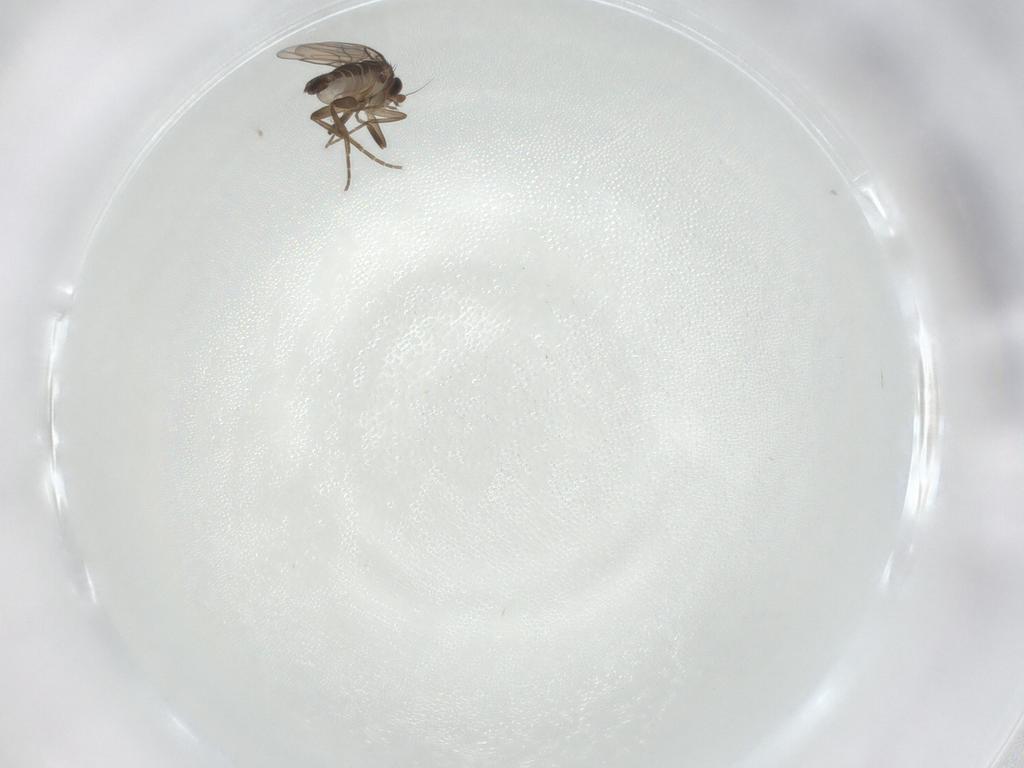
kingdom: Animalia
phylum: Arthropoda
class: Insecta
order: Diptera
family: Phoridae
